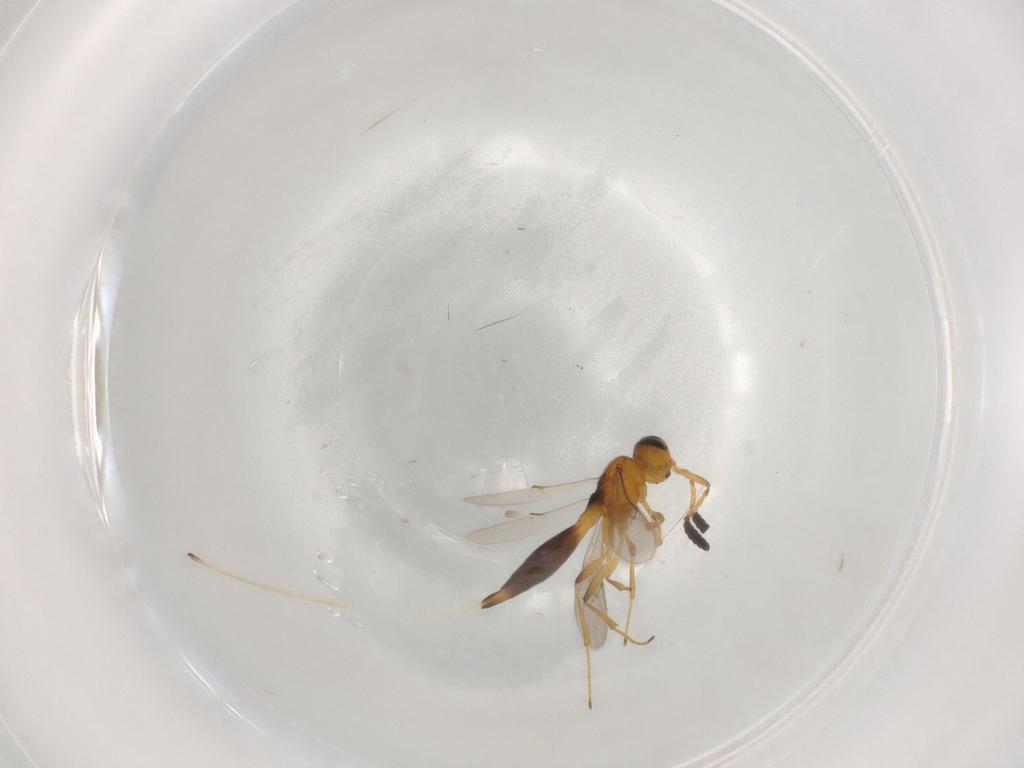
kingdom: Animalia
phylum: Arthropoda
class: Insecta
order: Hymenoptera
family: Scelionidae
